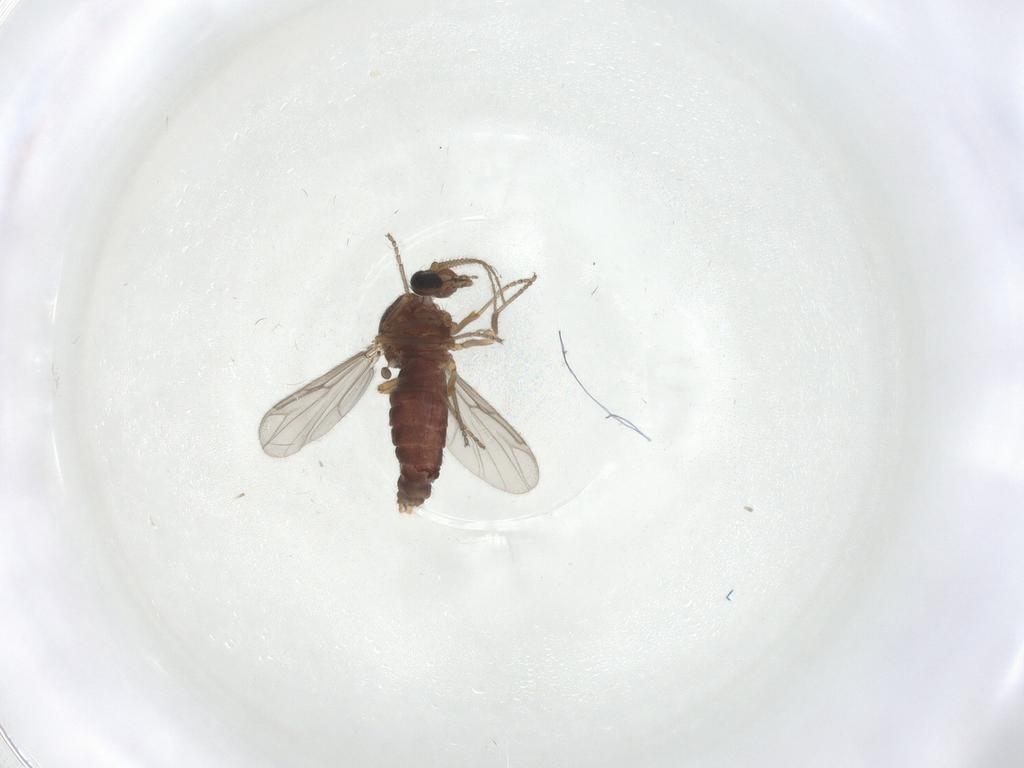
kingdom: Animalia
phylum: Arthropoda
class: Insecta
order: Diptera
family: Ceratopogonidae
